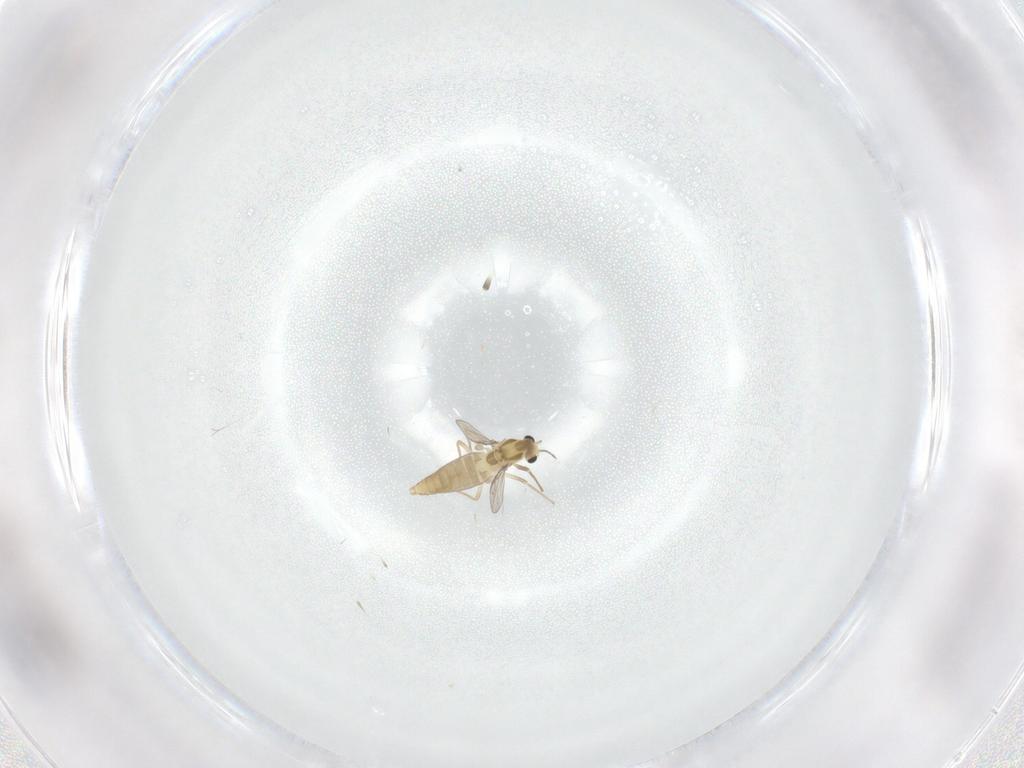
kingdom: Animalia
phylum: Arthropoda
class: Insecta
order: Diptera
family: Chironomidae
